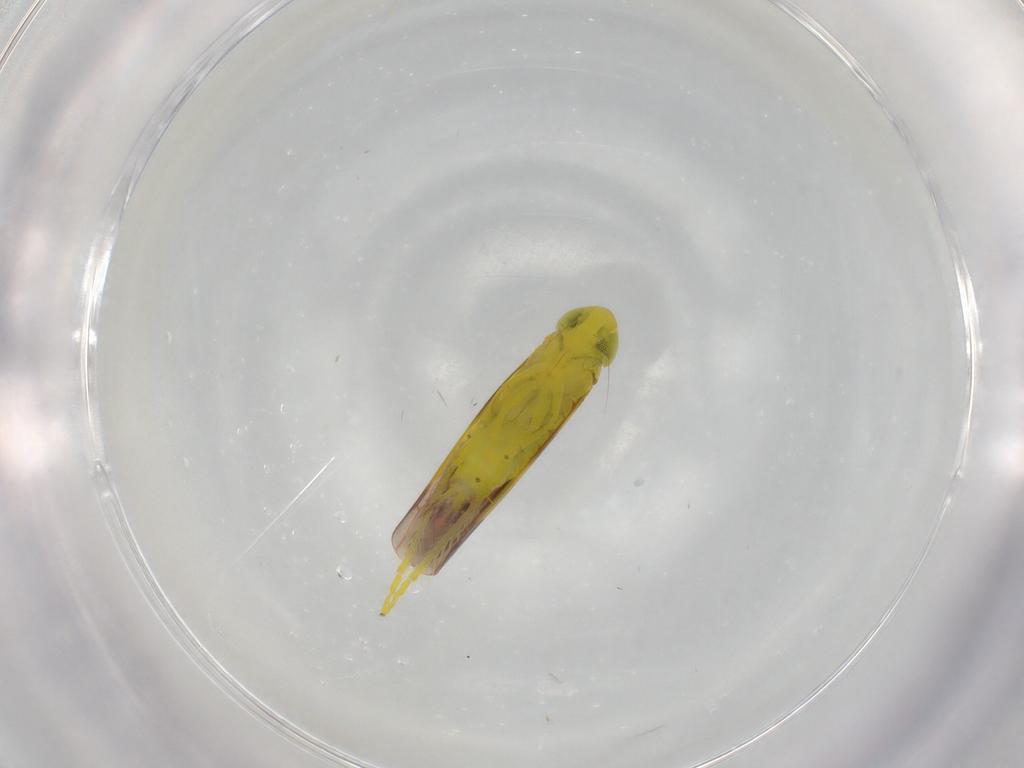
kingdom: Animalia
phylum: Arthropoda
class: Insecta
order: Hemiptera
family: Cicadellidae
